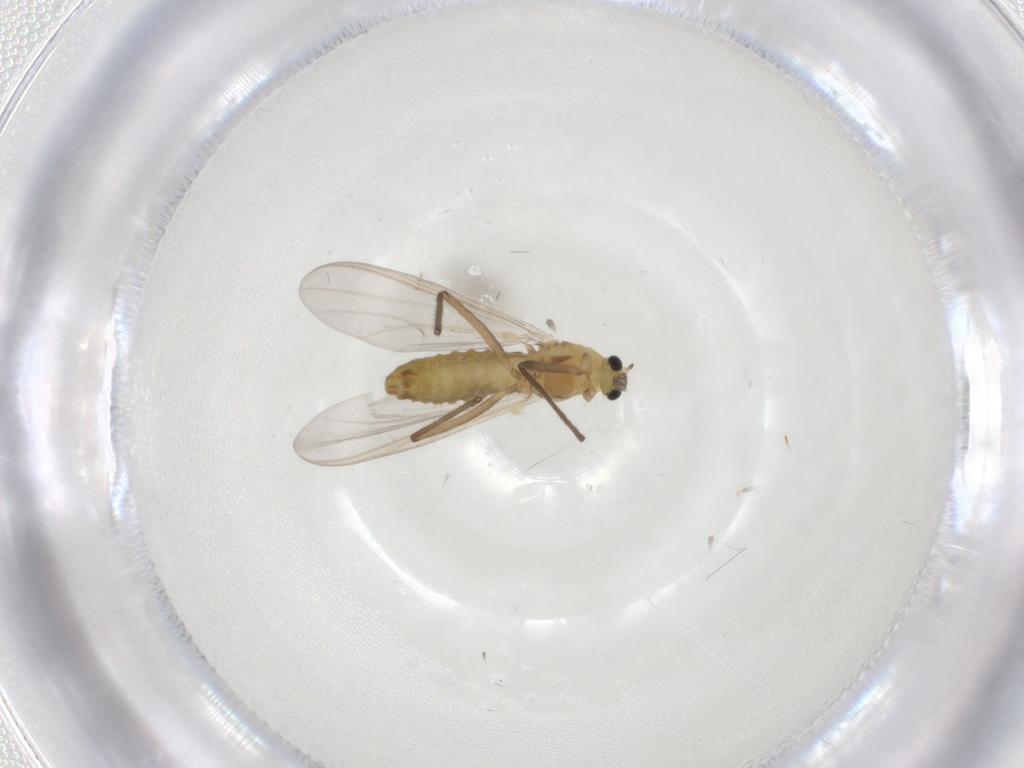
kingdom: Animalia
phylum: Arthropoda
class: Insecta
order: Diptera
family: Chironomidae
